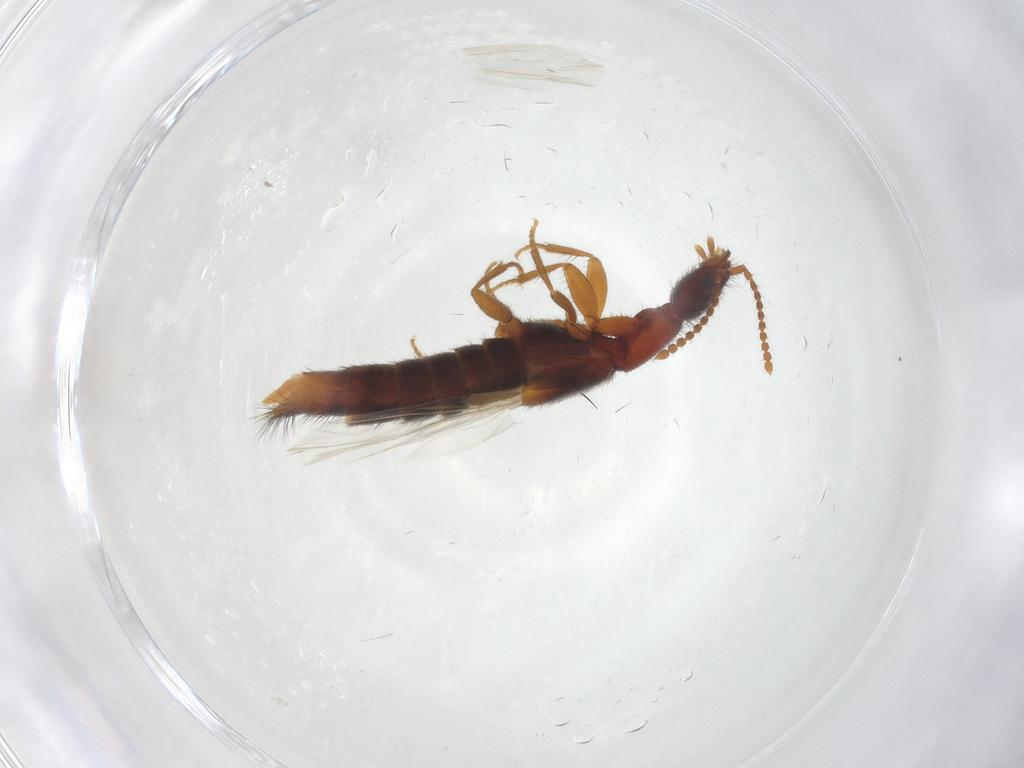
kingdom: Animalia
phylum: Arthropoda
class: Insecta
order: Coleoptera
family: Staphylinidae
